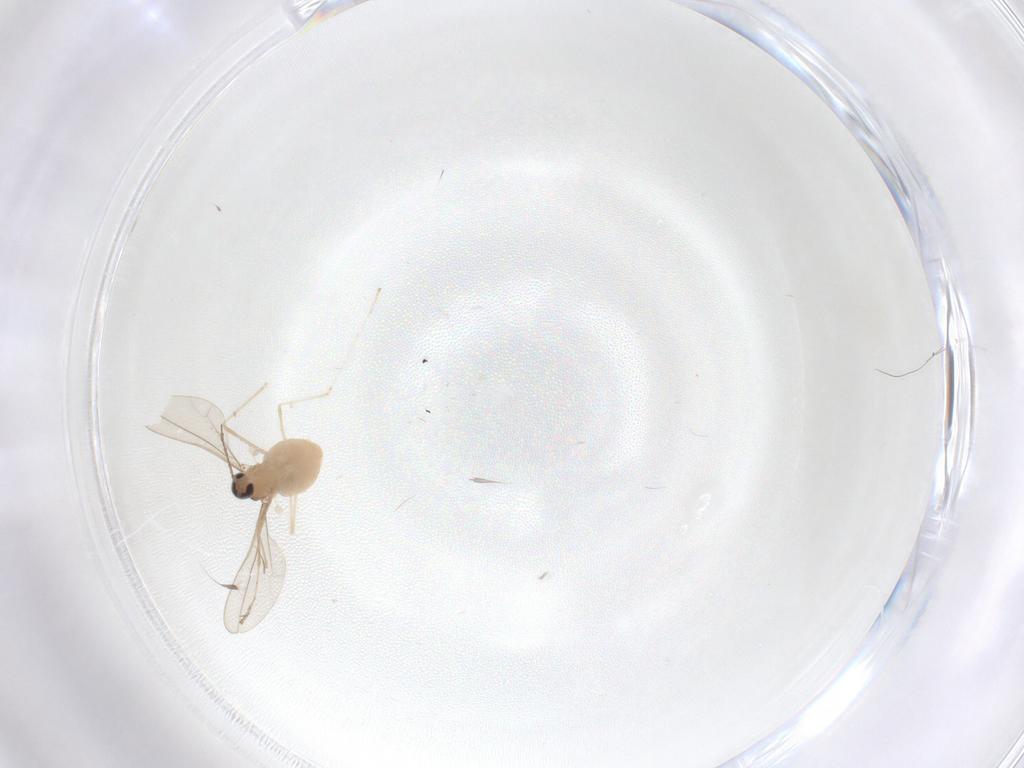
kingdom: Animalia
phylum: Arthropoda
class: Insecta
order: Diptera
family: Cecidomyiidae
